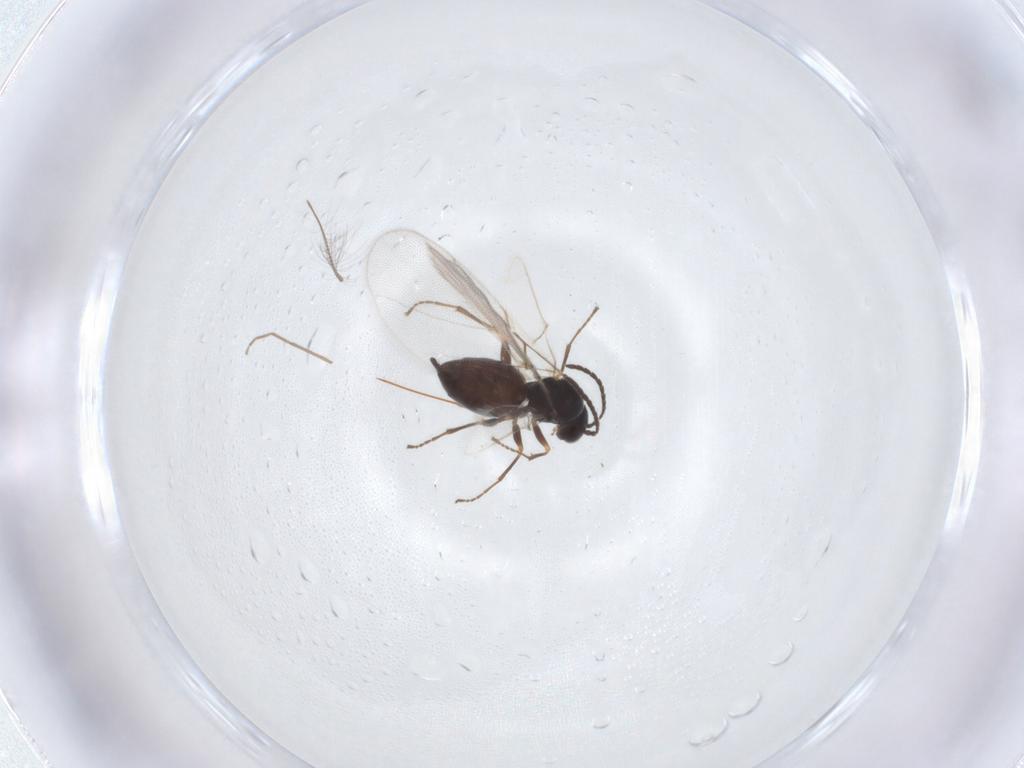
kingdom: Animalia
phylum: Arthropoda
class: Insecta
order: Hymenoptera
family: Cynipidae
